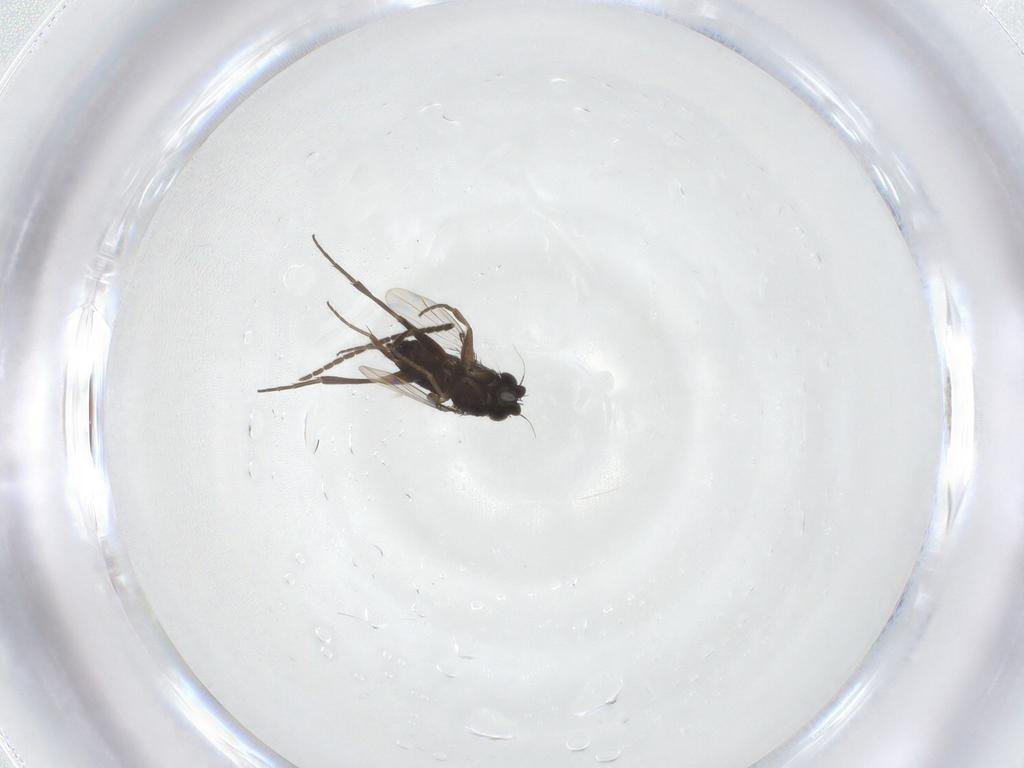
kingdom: Animalia
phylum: Arthropoda
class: Insecta
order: Diptera
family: Sciaridae
